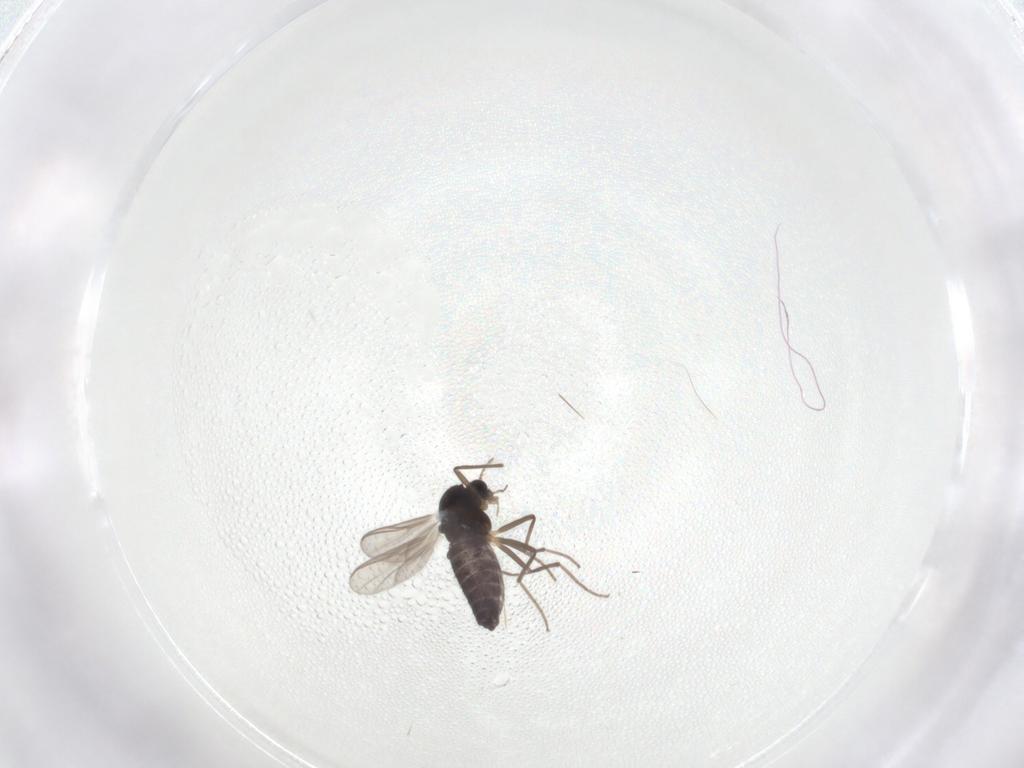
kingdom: Animalia
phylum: Arthropoda
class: Insecta
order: Diptera
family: Chironomidae
